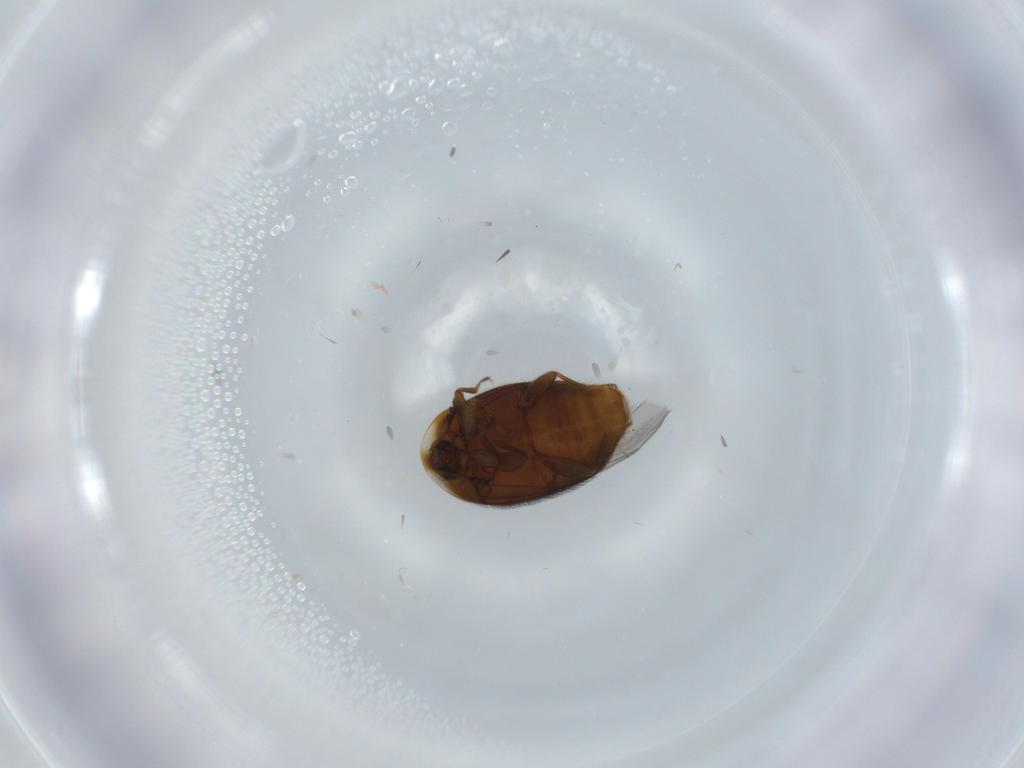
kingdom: Animalia
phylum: Arthropoda
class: Insecta
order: Coleoptera
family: Corylophidae
